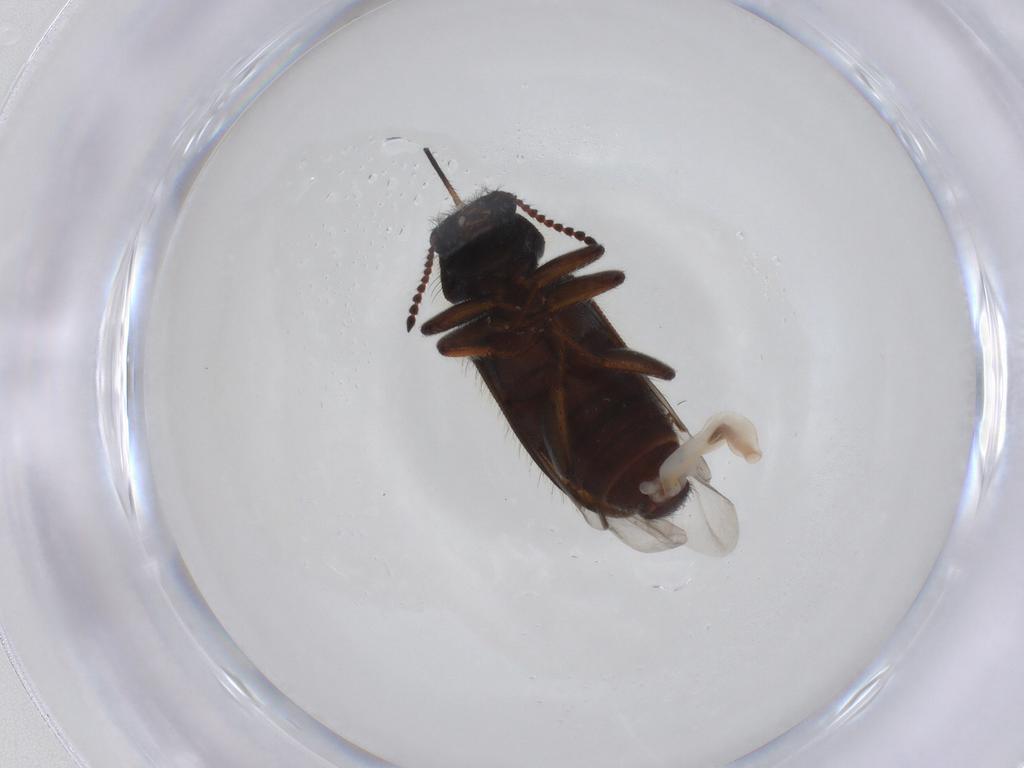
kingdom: Animalia
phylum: Arthropoda
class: Insecta
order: Coleoptera
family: Melyridae
